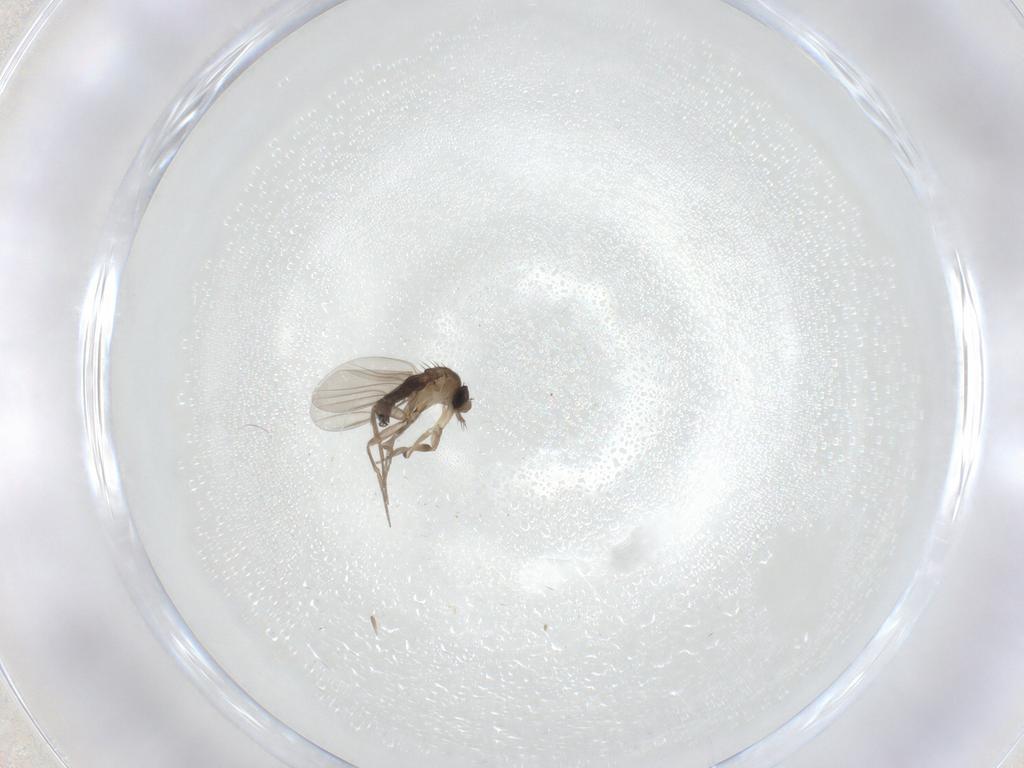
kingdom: Animalia
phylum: Arthropoda
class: Insecta
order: Diptera
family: Phoridae
